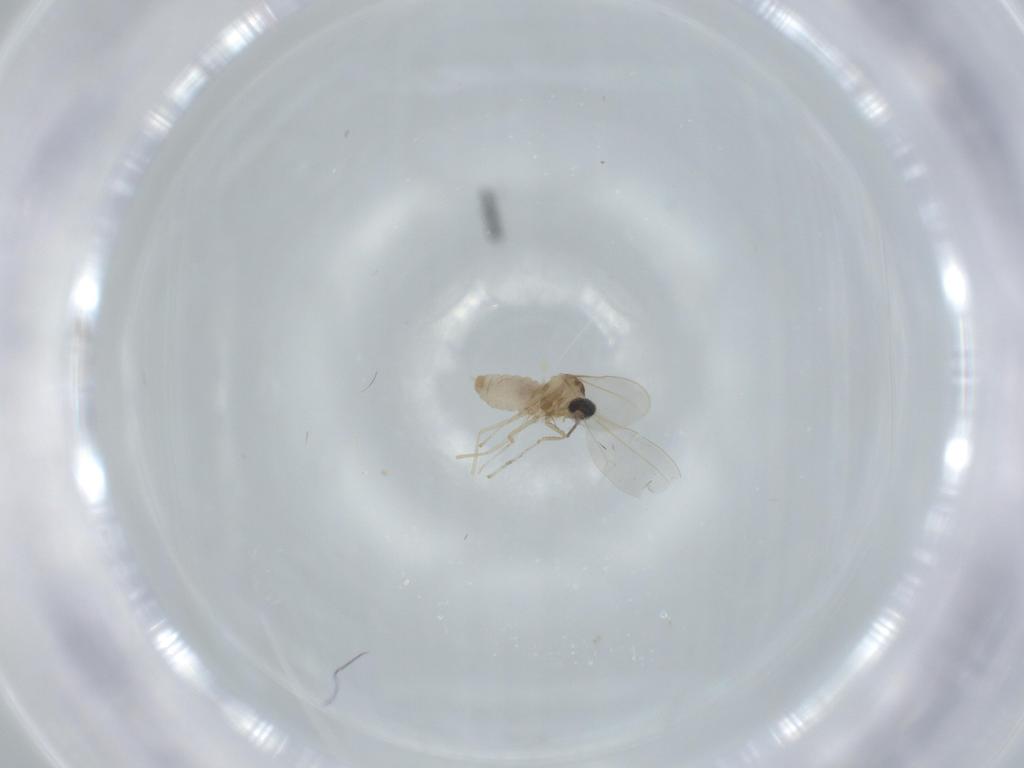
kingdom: Animalia
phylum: Arthropoda
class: Insecta
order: Diptera
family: Cecidomyiidae
